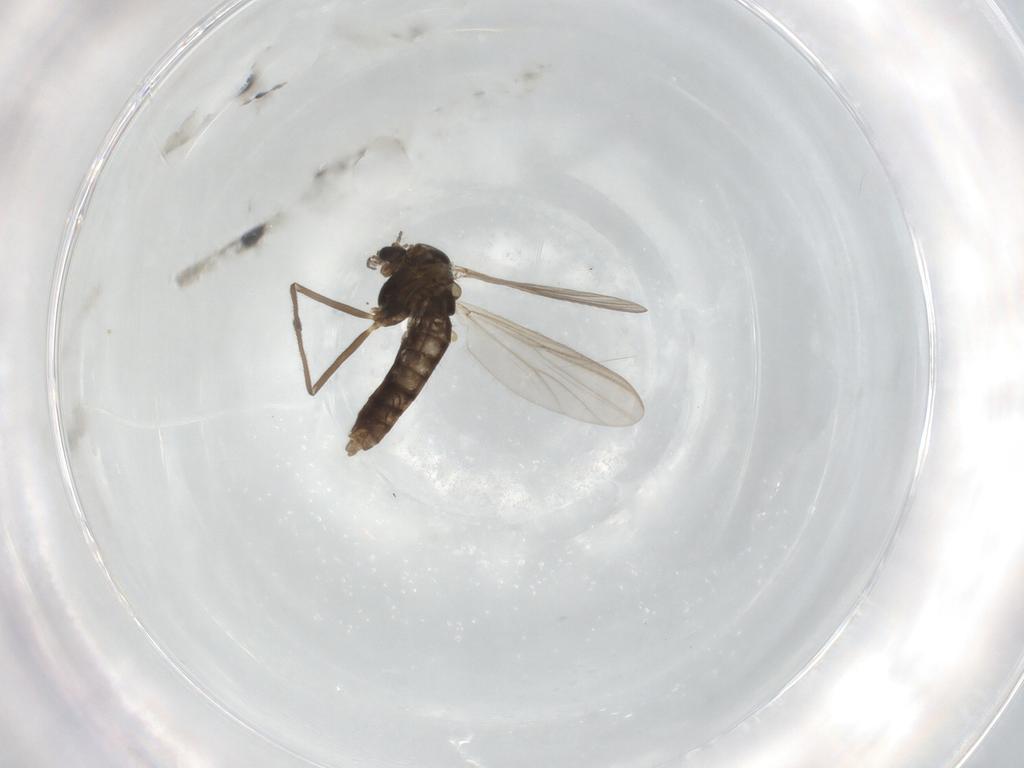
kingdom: Animalia
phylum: Arthropoda
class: Insecta
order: Diptera
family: Chironomidae
